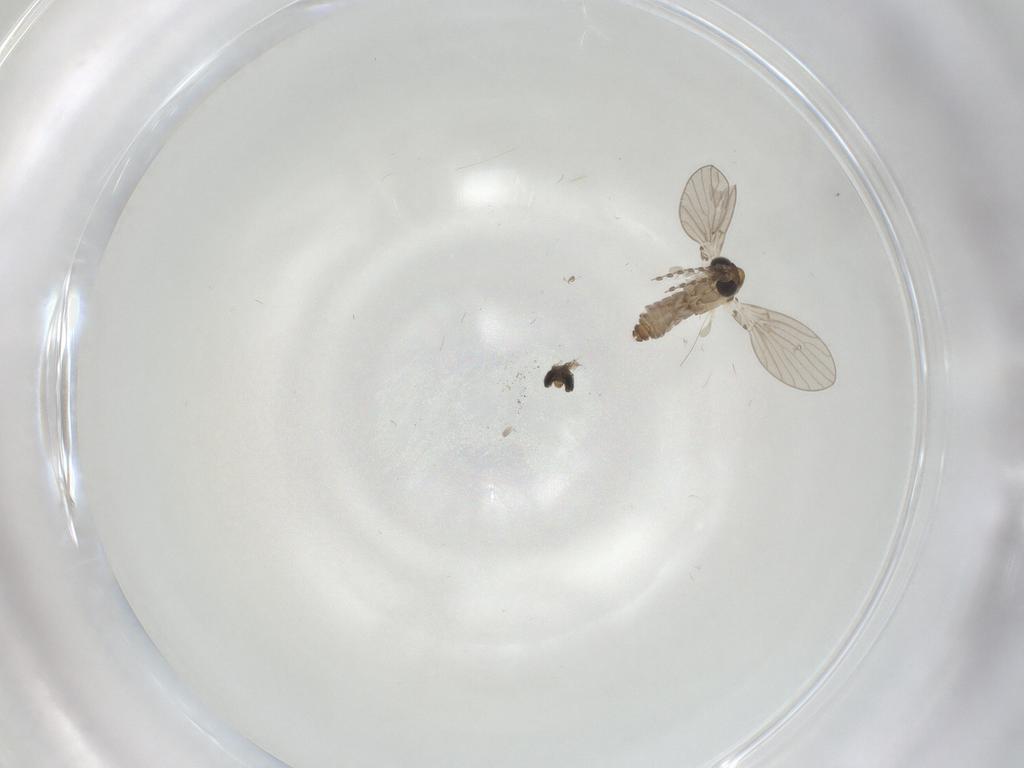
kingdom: Animalia
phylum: Arthropoda
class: Insecta
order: Diptera
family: Psychodidae
